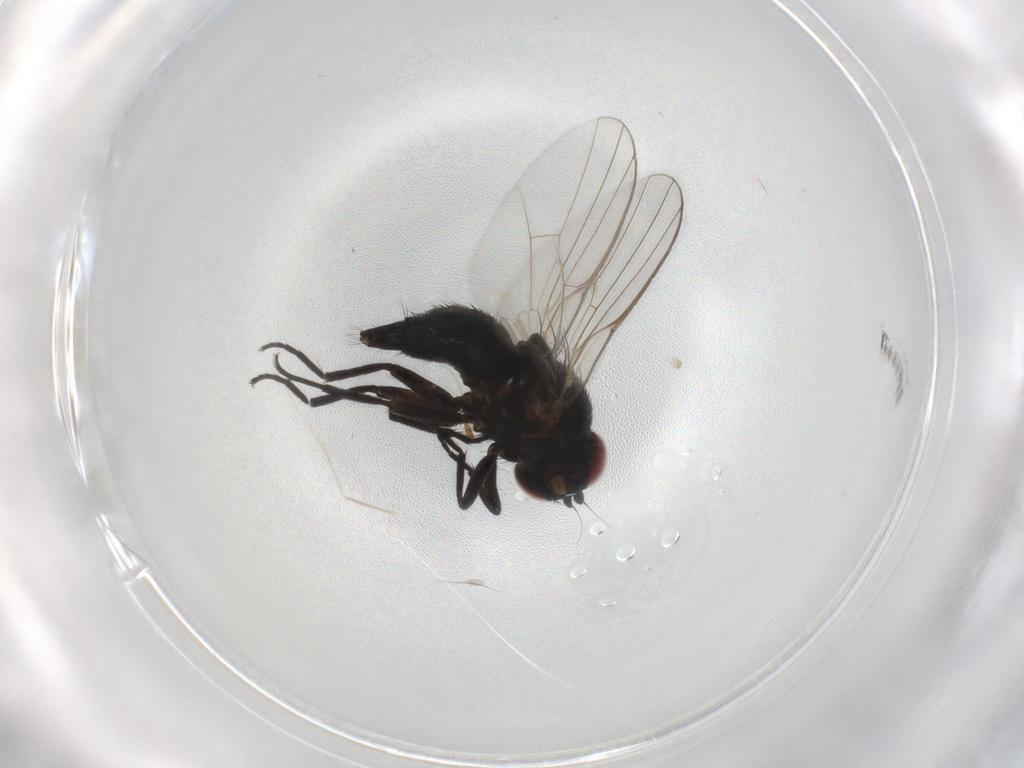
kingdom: Animalia
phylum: Arthropoda
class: Insecta
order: Diptera
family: Agromyzidae
